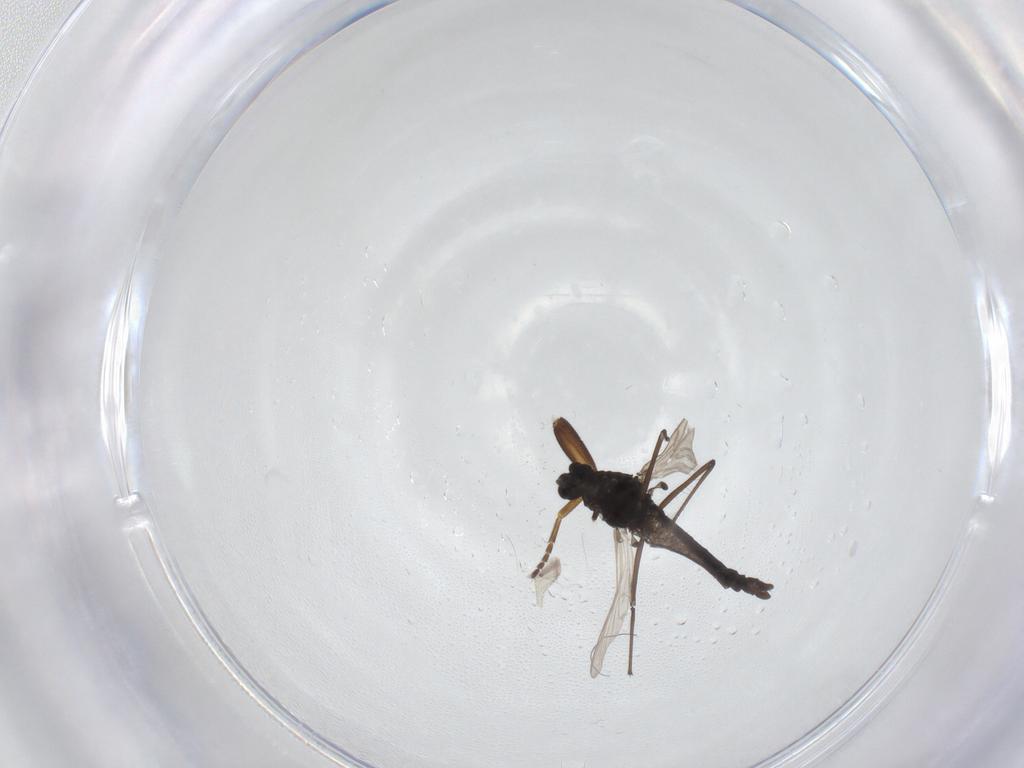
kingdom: Animalia
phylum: Arthropoda
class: Insecta
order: Diptera
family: Phoridae
